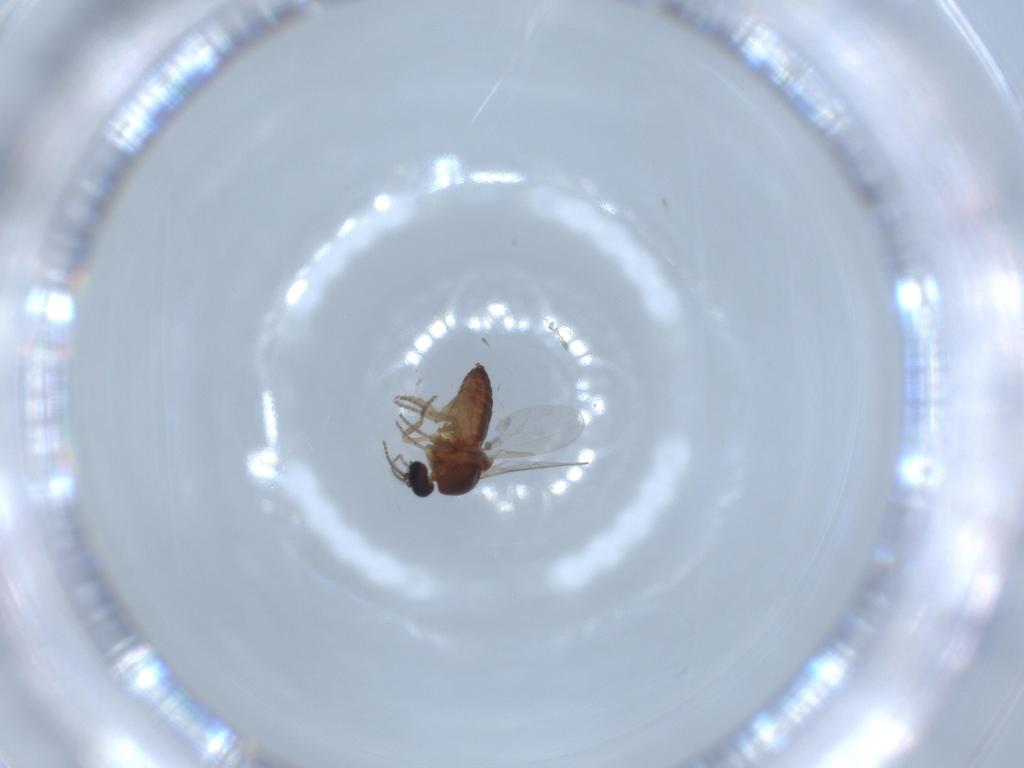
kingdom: Animalia
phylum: Arthropoda
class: Insecta
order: Diptera
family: Ceratopogonidae
